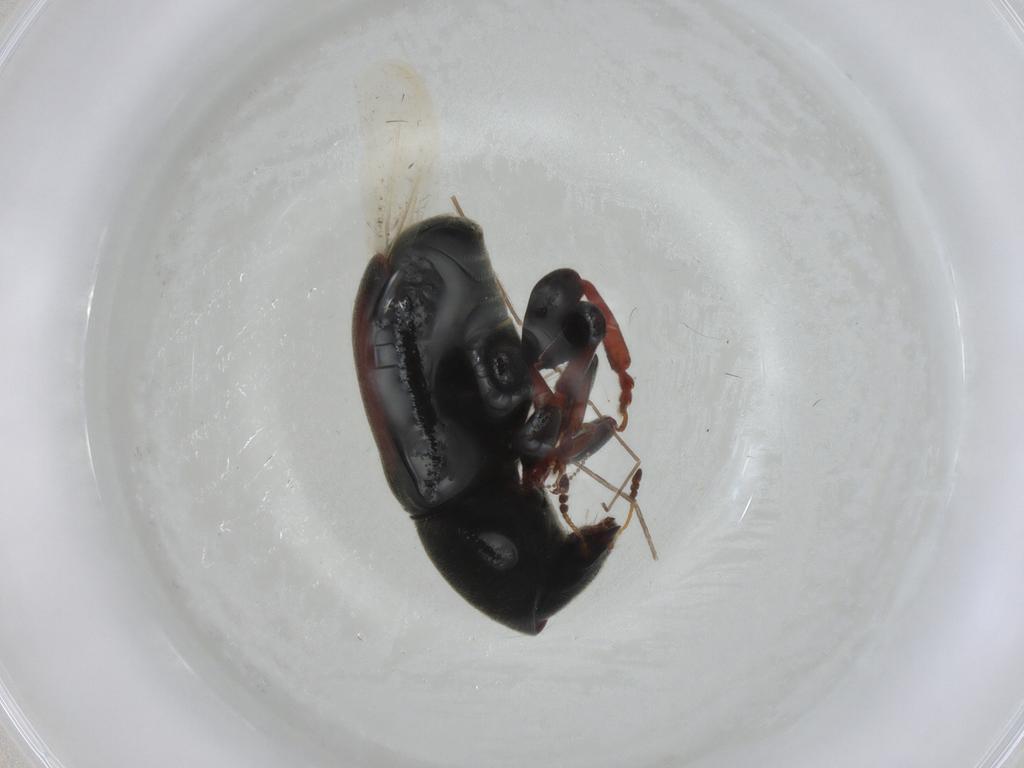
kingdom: Animalia
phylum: Arthropoda
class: Insecta
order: Coleoptera
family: Anthribidae
